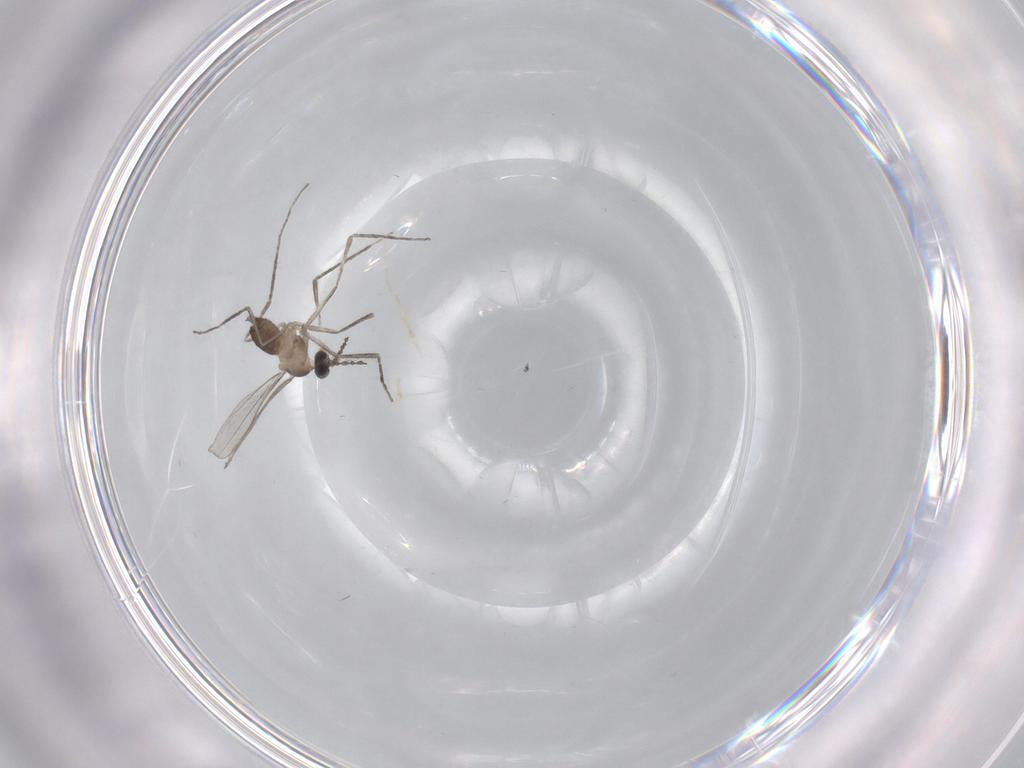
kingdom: Animalia
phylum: Arthropoda
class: Insecta
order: Diptera
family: Cecidomyiidae
